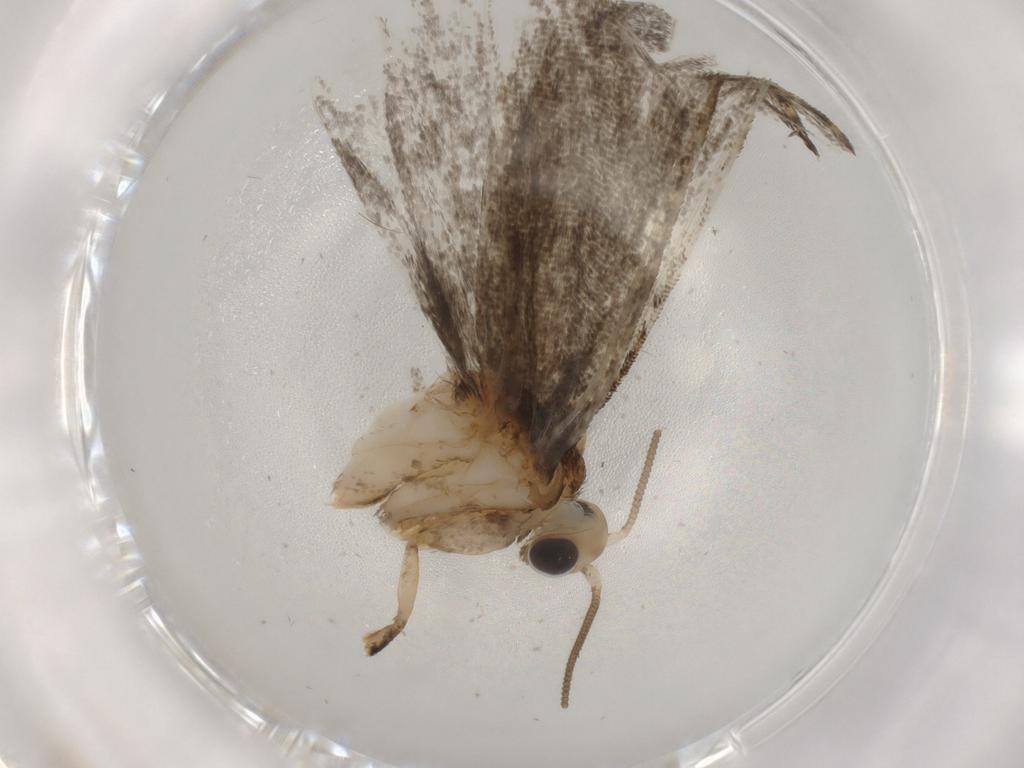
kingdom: Animalia
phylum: Arthropoda
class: Insecta
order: Lepidoptera
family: Tineidae
